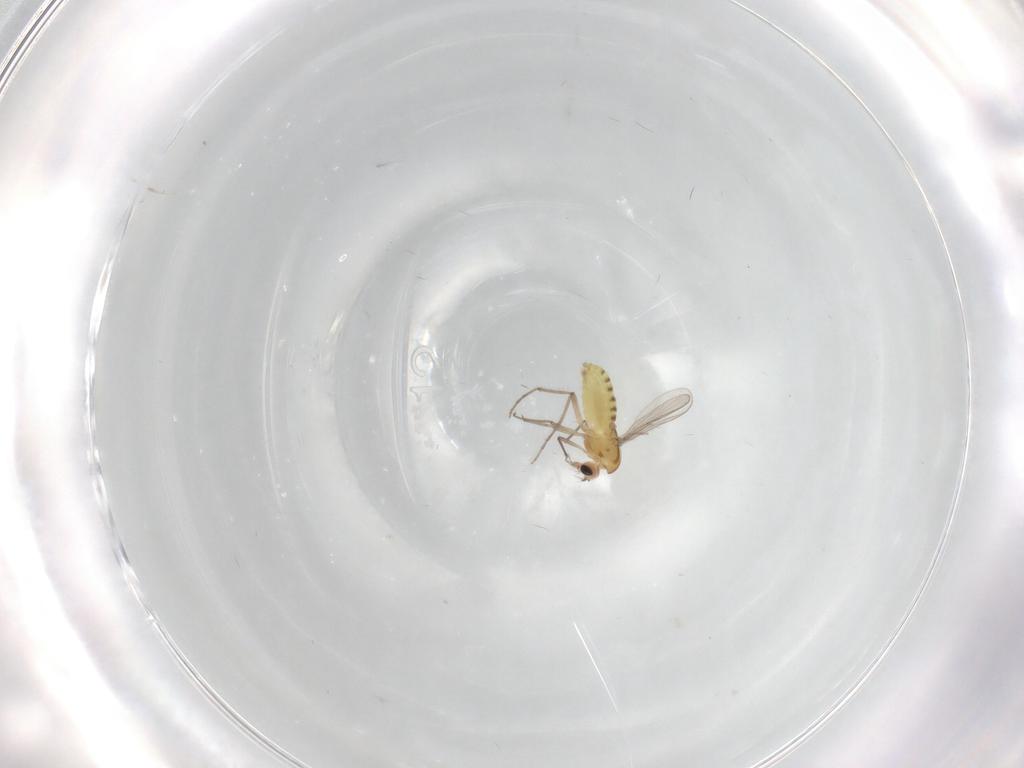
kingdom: Animalia
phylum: Arthropoda
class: Insecta
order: Diptera
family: Chironomidae
